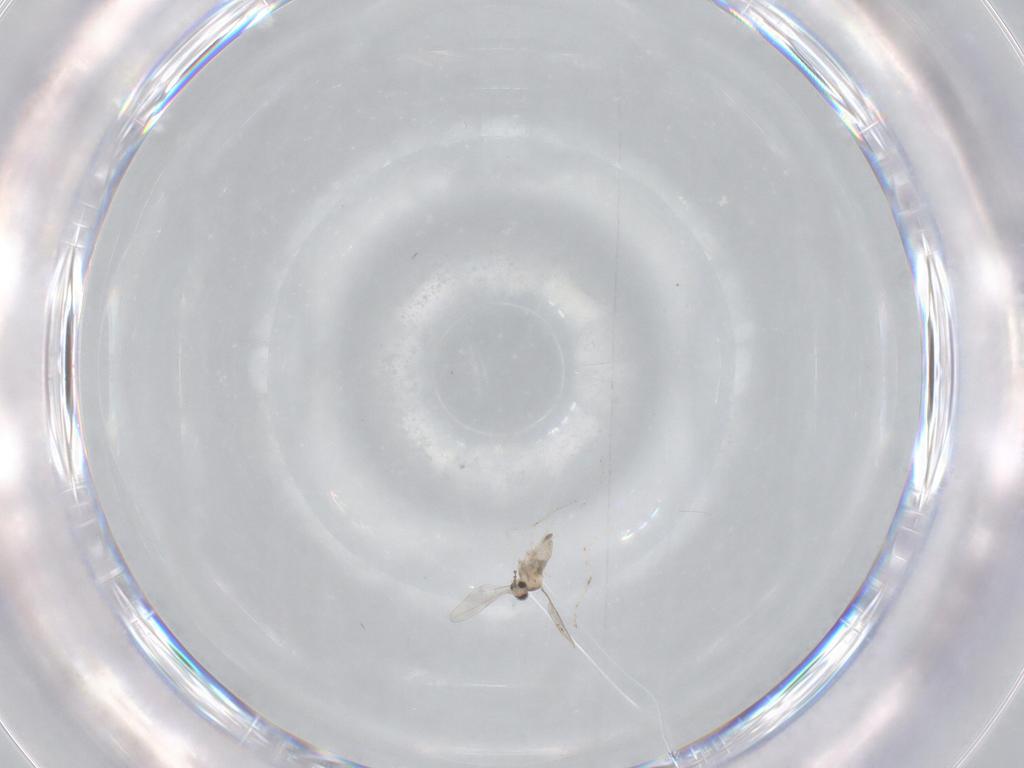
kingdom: Animalia
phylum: Arthropoda
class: Insecta
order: Diptera
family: Cecidomyiidae
